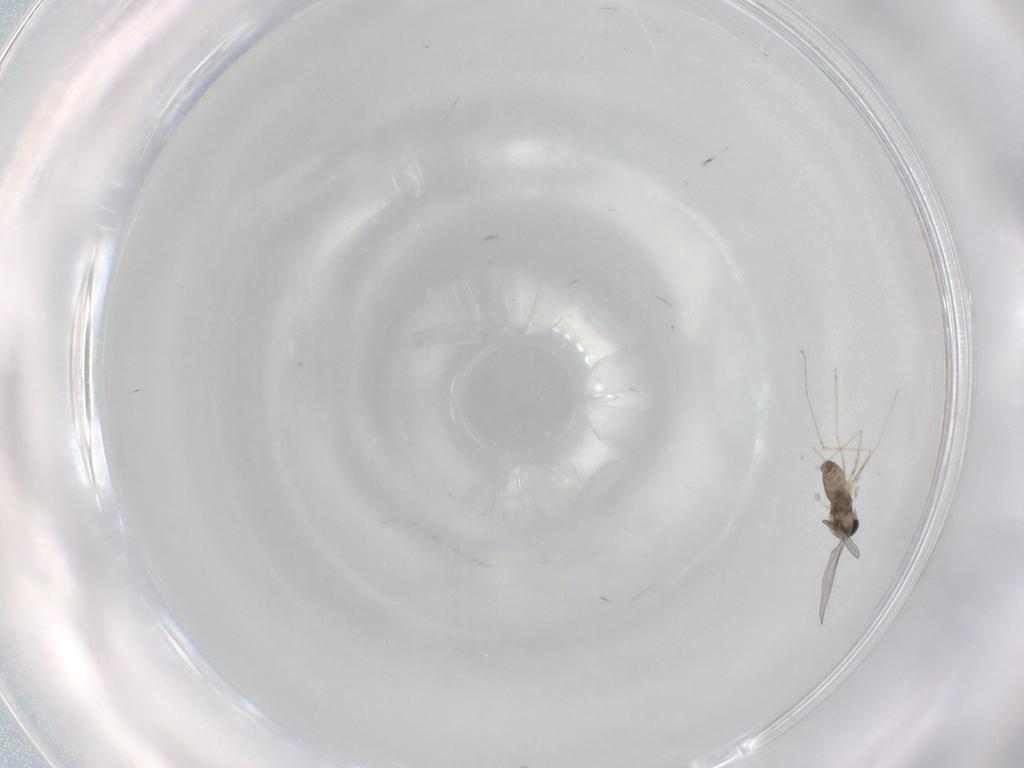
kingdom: Animalia
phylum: Arthropoda
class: Insecta
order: Diptera
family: Cecidomyiidae
